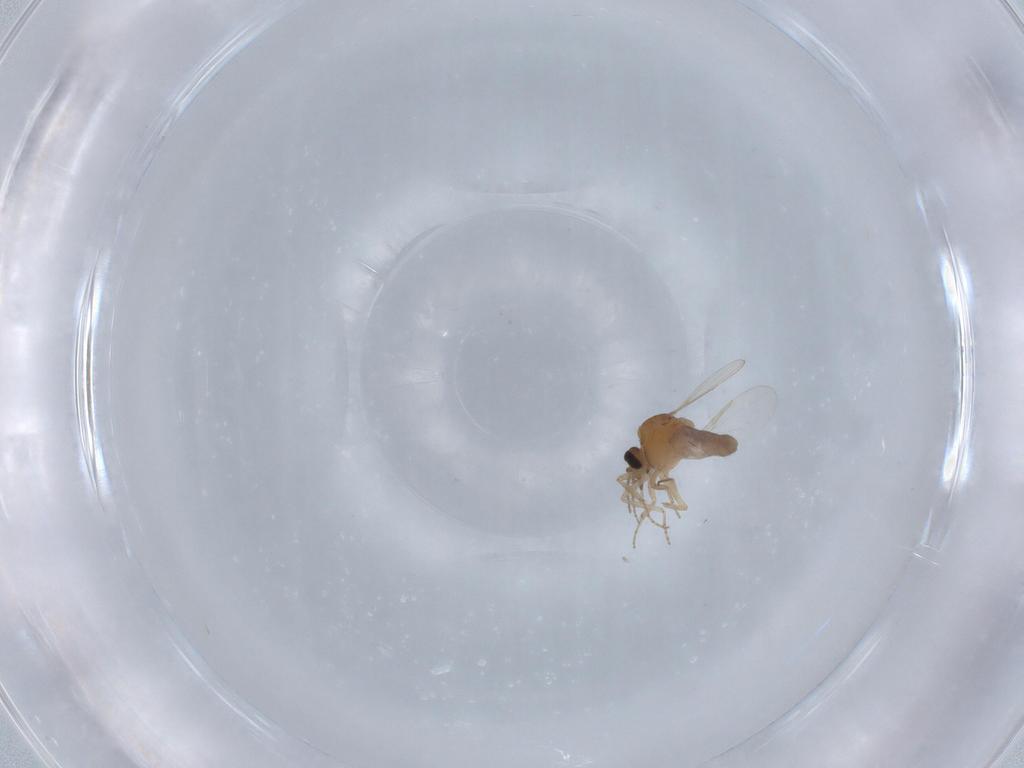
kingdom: Animalia
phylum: Arthropoda
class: Insecta
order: Diptera
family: Ceratopogonidae
